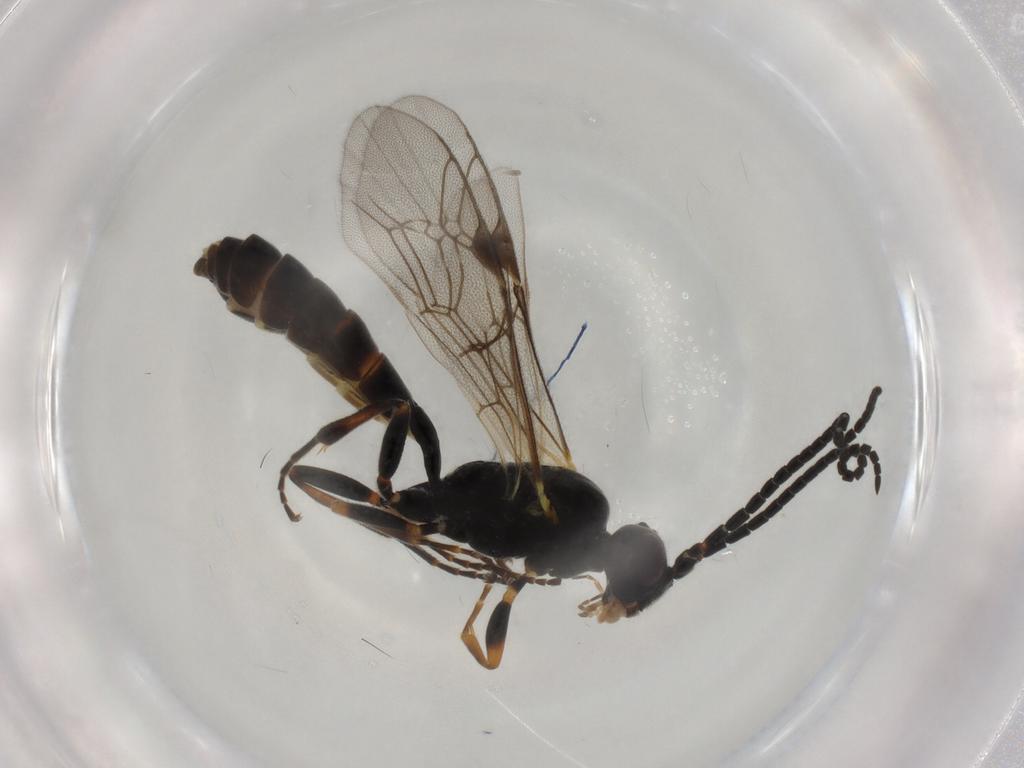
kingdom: Animalia
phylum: Arthropoda
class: Insecta
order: Hymenoptera
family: Ichneumonidae
